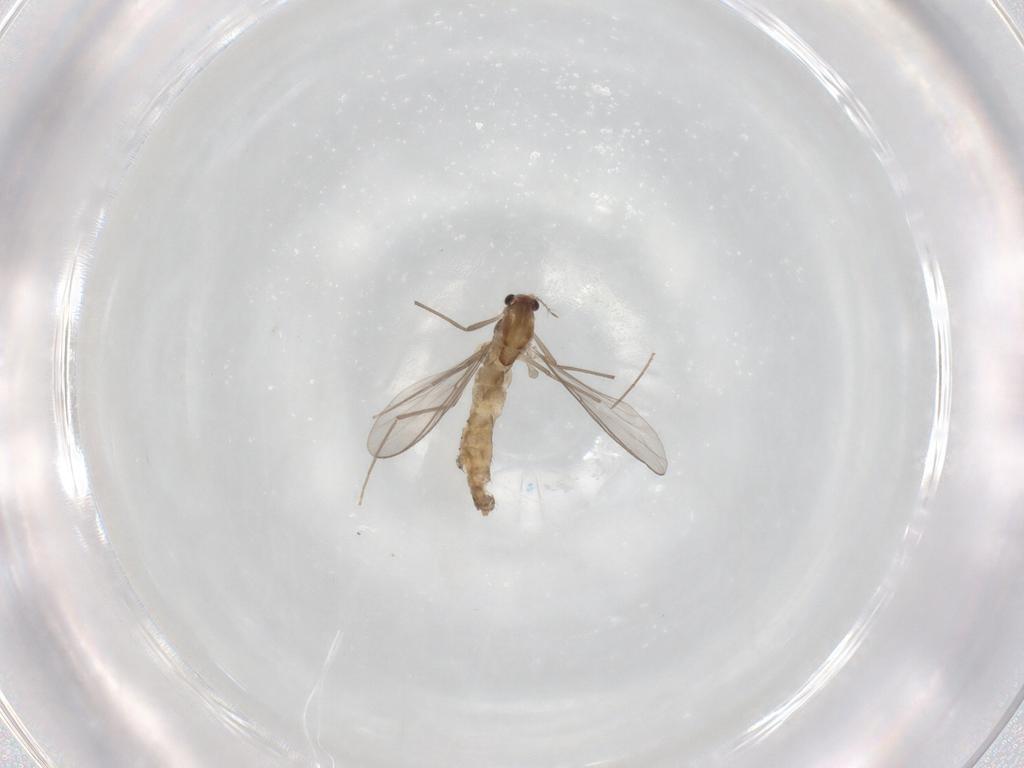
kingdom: Animalia
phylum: Arthropoda
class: Insecta
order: Diptera
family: Chironomidae
